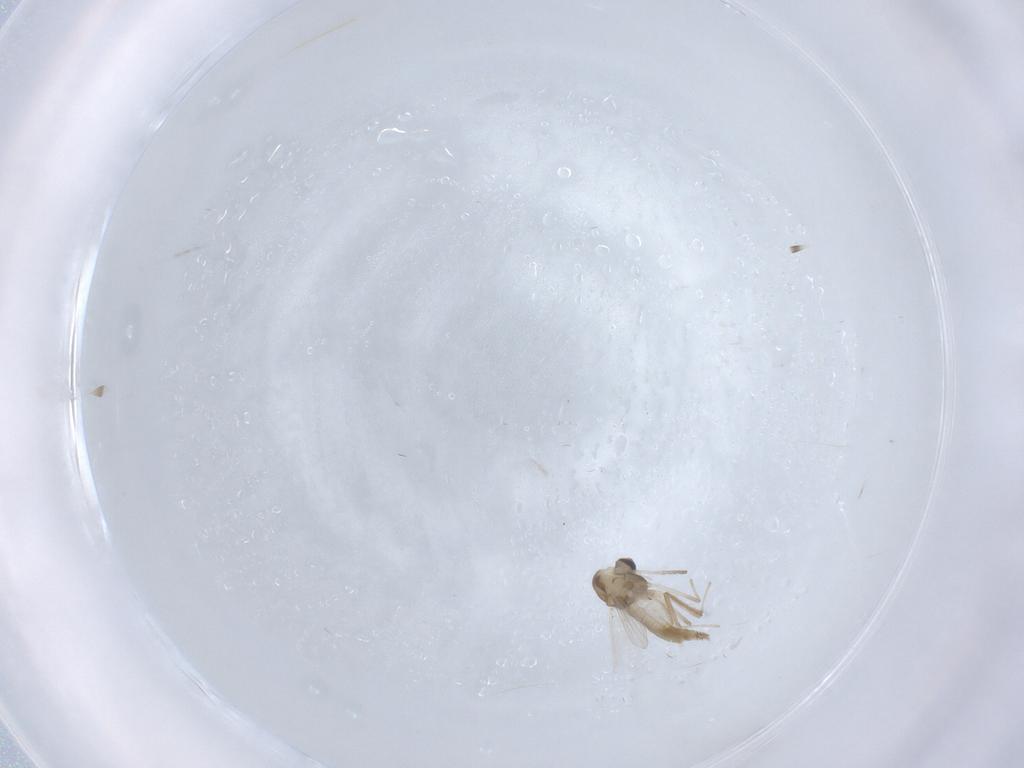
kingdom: Animalia
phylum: Arthropoda
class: Insecta
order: Diptera
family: Chironomidae
